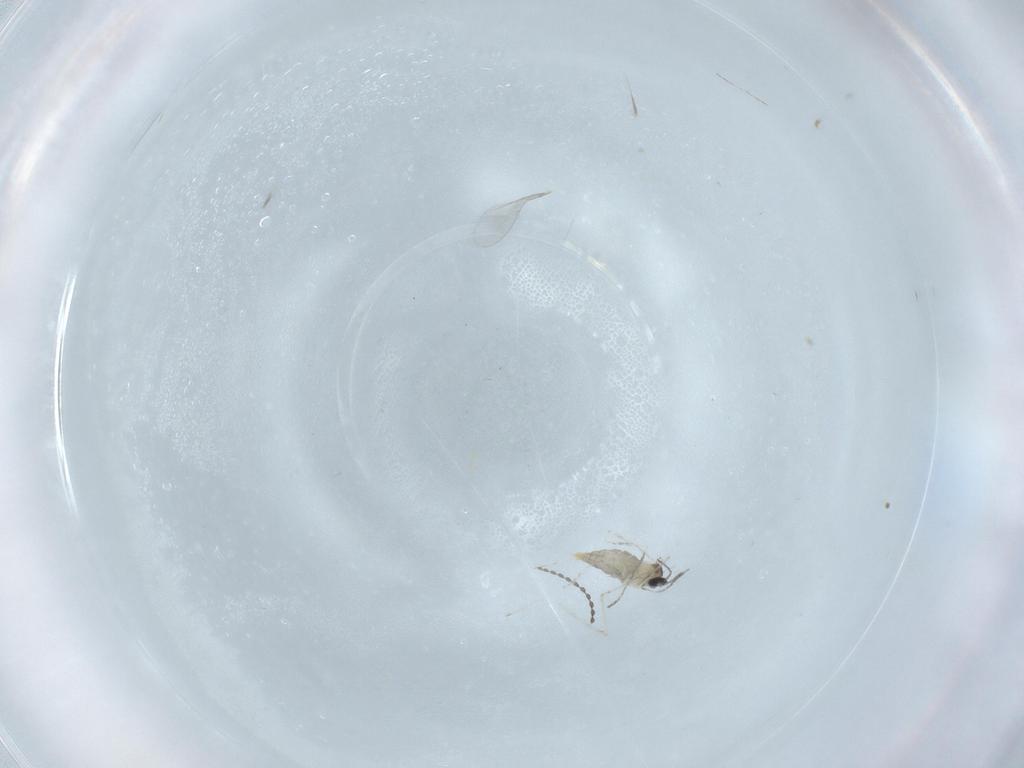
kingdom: Animalia
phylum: Arthropoda
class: Insecta
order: Diptera
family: Cecidomyiidae
